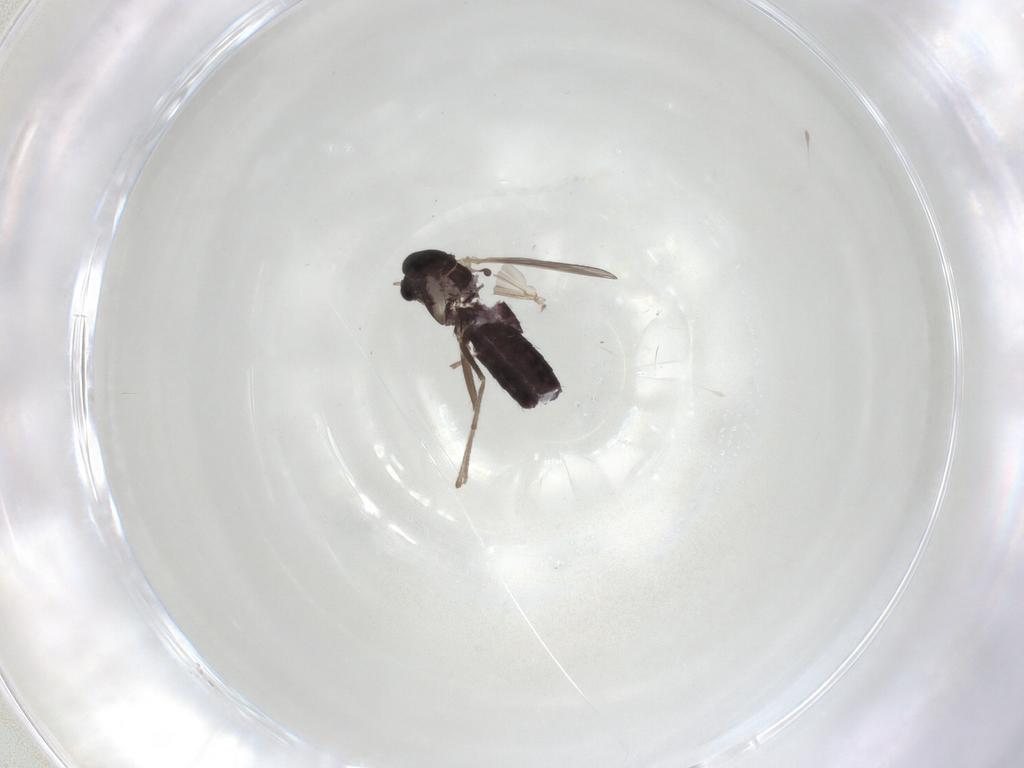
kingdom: Animalia
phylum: Arthropoda
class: Insecta
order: Diptera
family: Chironomidae
